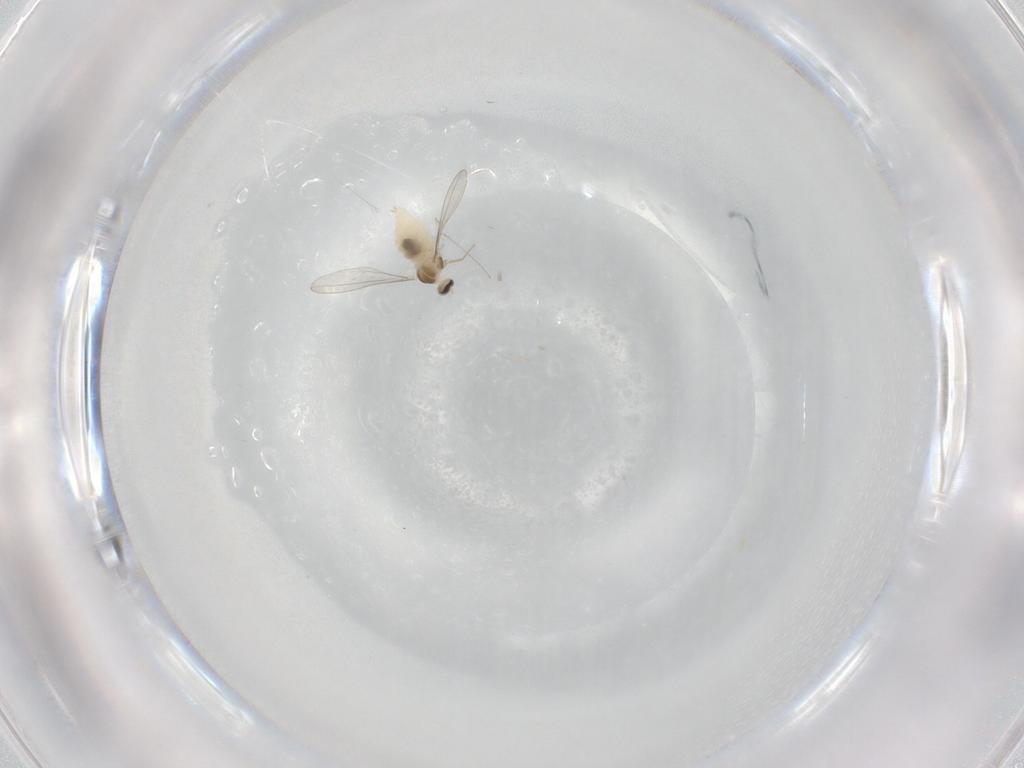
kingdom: Animalia
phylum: Arthropoda
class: Insecta
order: Diptera
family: Cecidomyiidae
